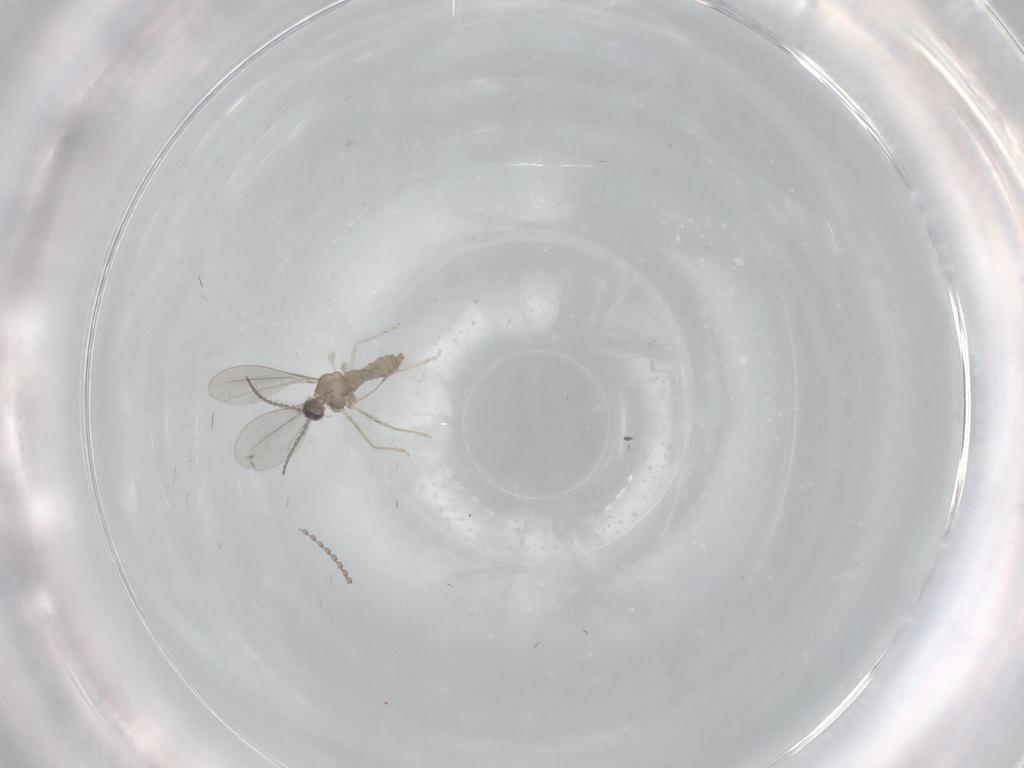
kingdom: Animalia
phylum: Arthropoda
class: Insecta
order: Diptera
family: Cecidomyiidae
